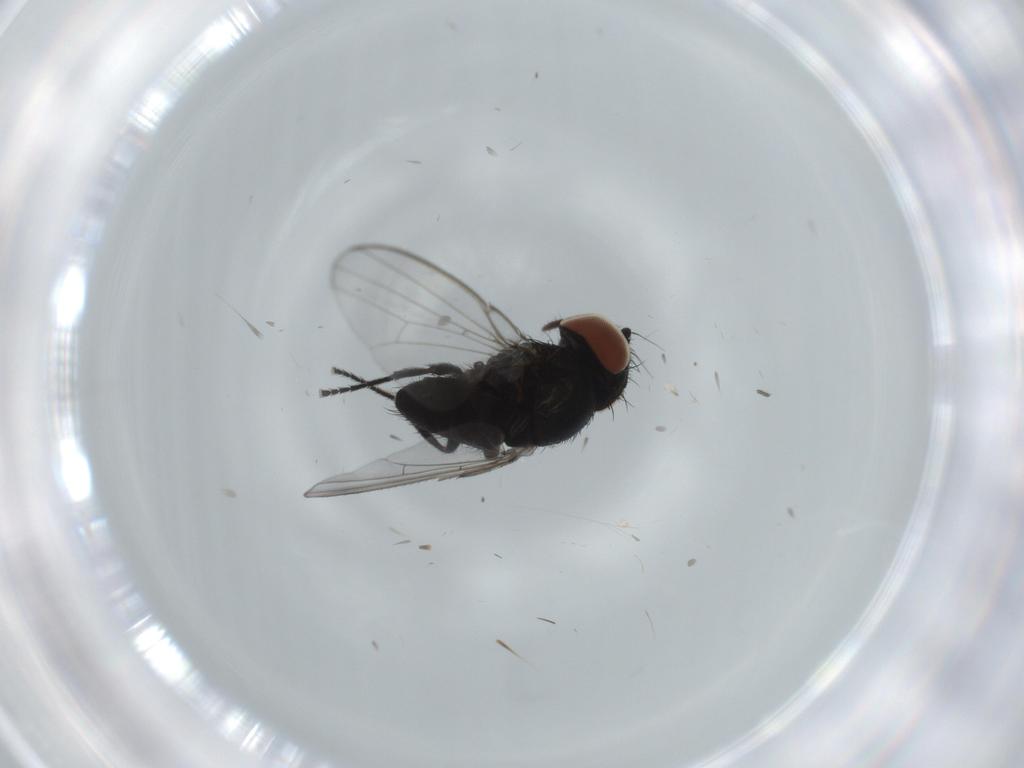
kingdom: Animalia
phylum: Arthropoda
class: Insecta
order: Diptera
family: Milichiidae
